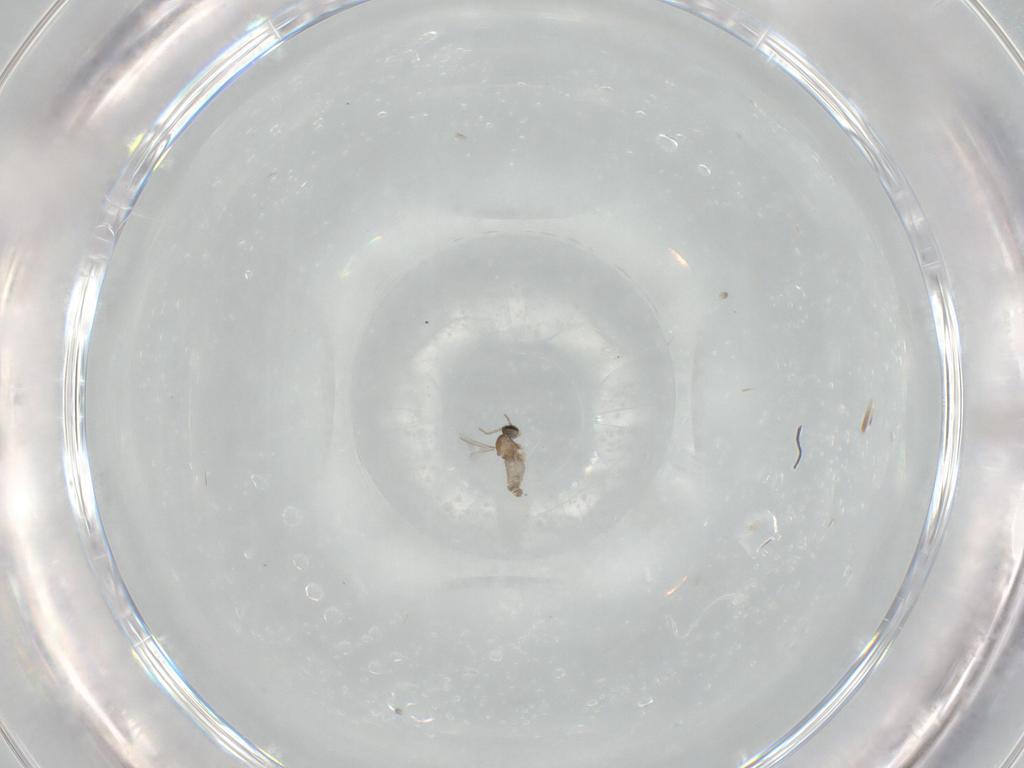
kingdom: Animalia
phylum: Arthropoda
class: Insecta
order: Diptera
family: Cecidomyiidae
